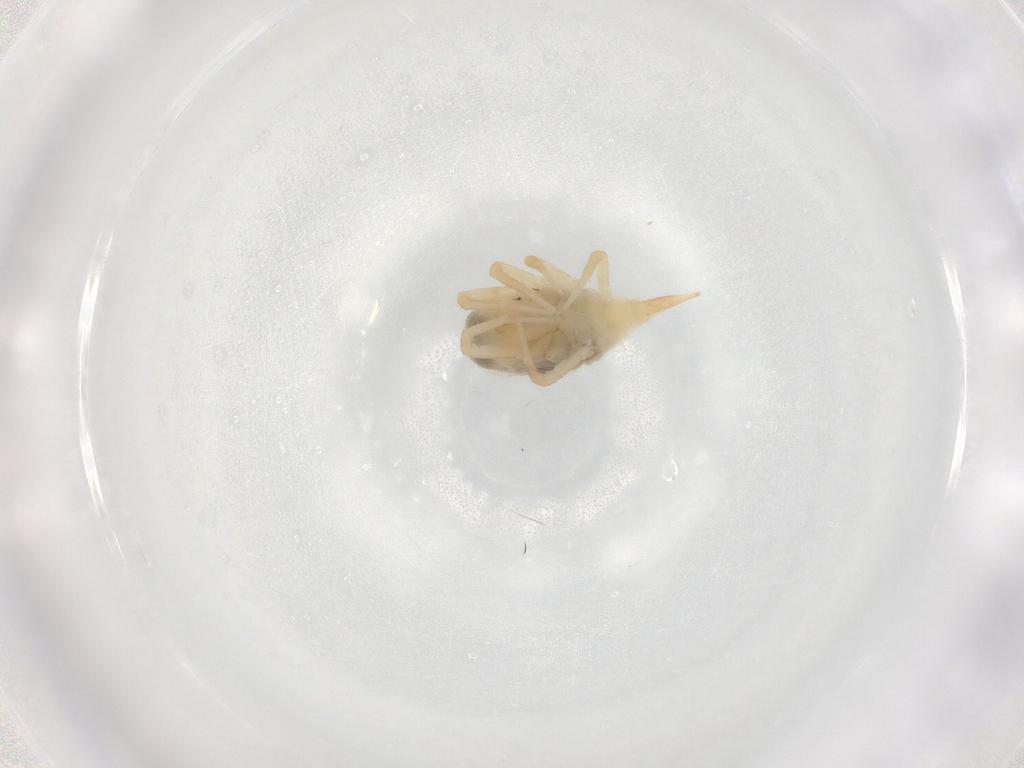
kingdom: Animalia
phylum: Arthropoda
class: Arachnida
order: Trombidiformes
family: Bdellidae
